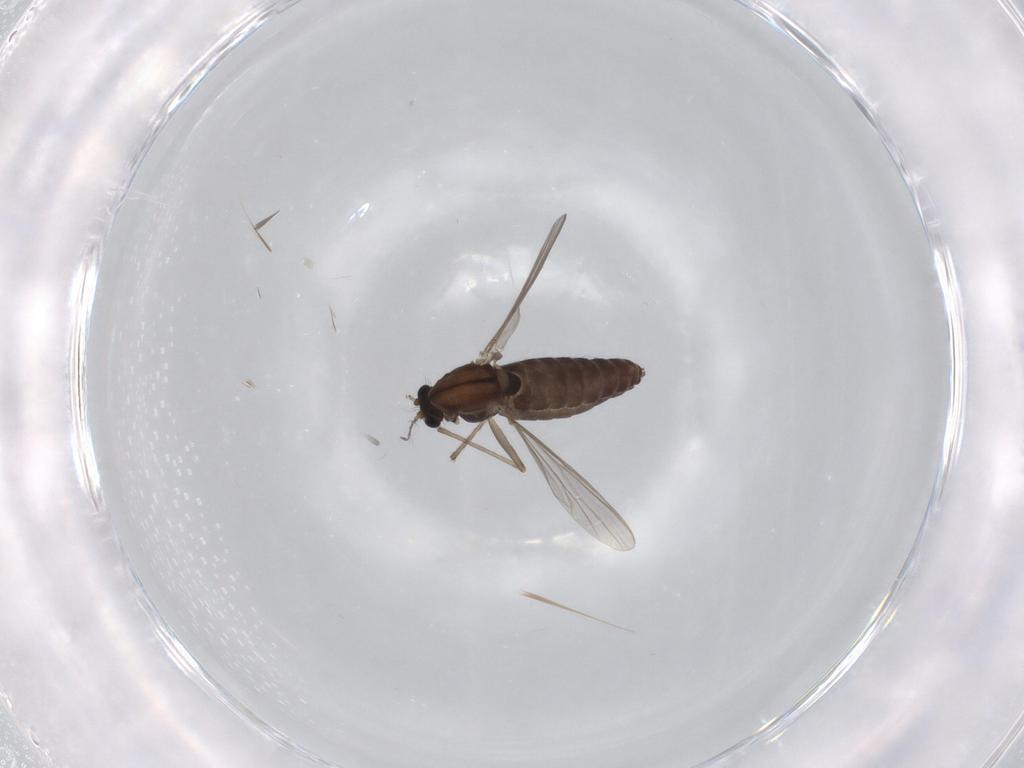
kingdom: Animalia
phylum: Arthropoda
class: Insecta
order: Diptera
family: Chironomidae
